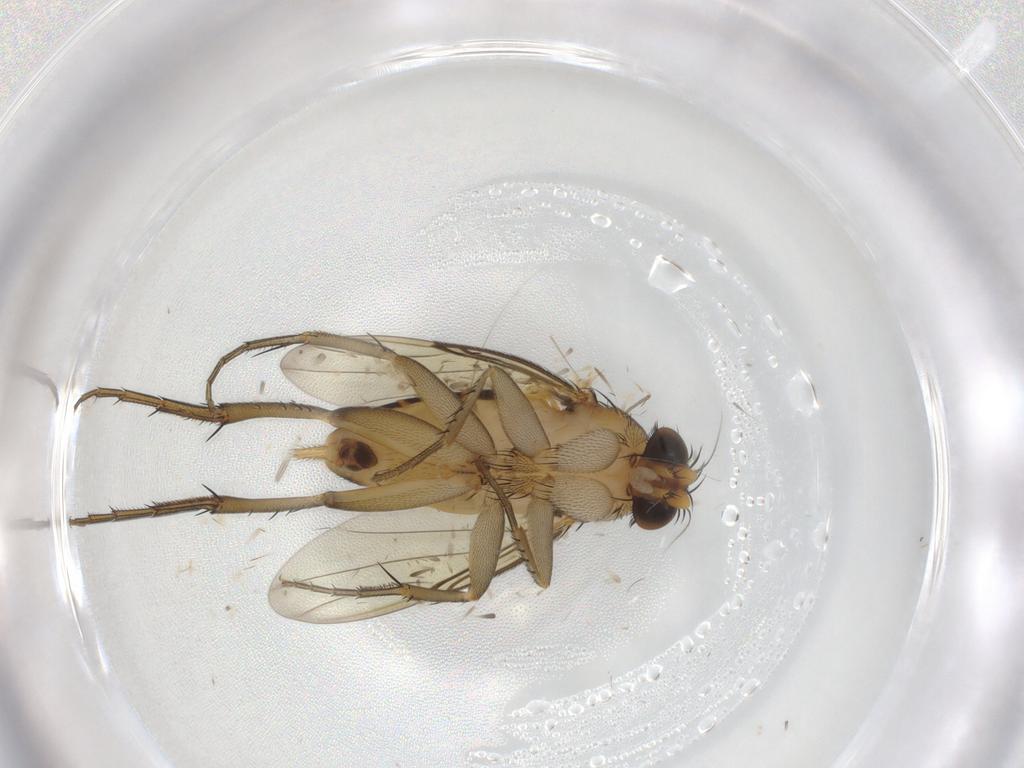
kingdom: Animalia
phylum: Arthropoda
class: Insecta
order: Diptera
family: Phoridae
